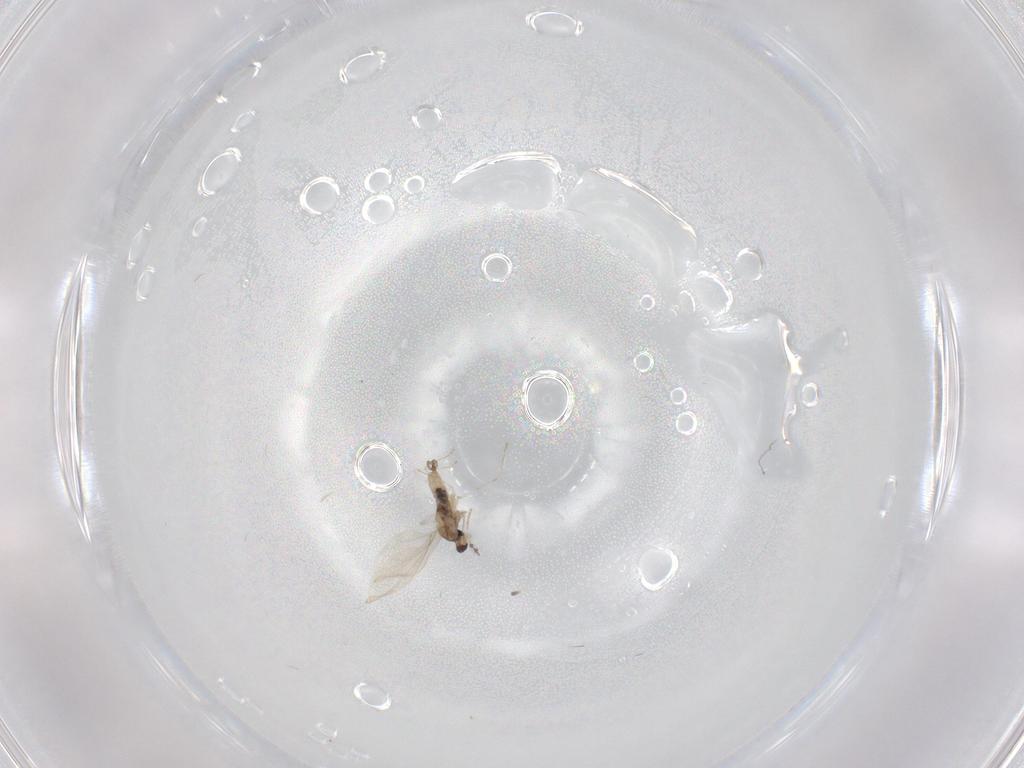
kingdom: Animalia
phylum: Arthropoda
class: Insecta
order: Diptera
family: Cecidomyiidae
